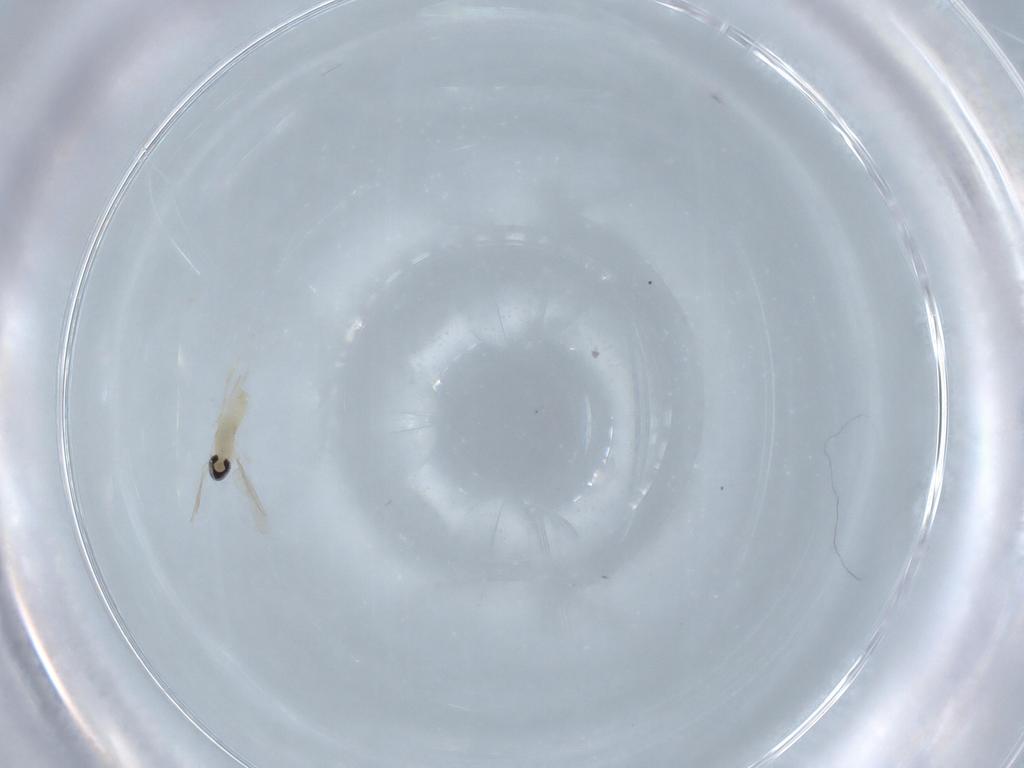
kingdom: Animalia
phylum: Arthropoda
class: Insecta
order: Diptera
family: Cecidomyiidae
